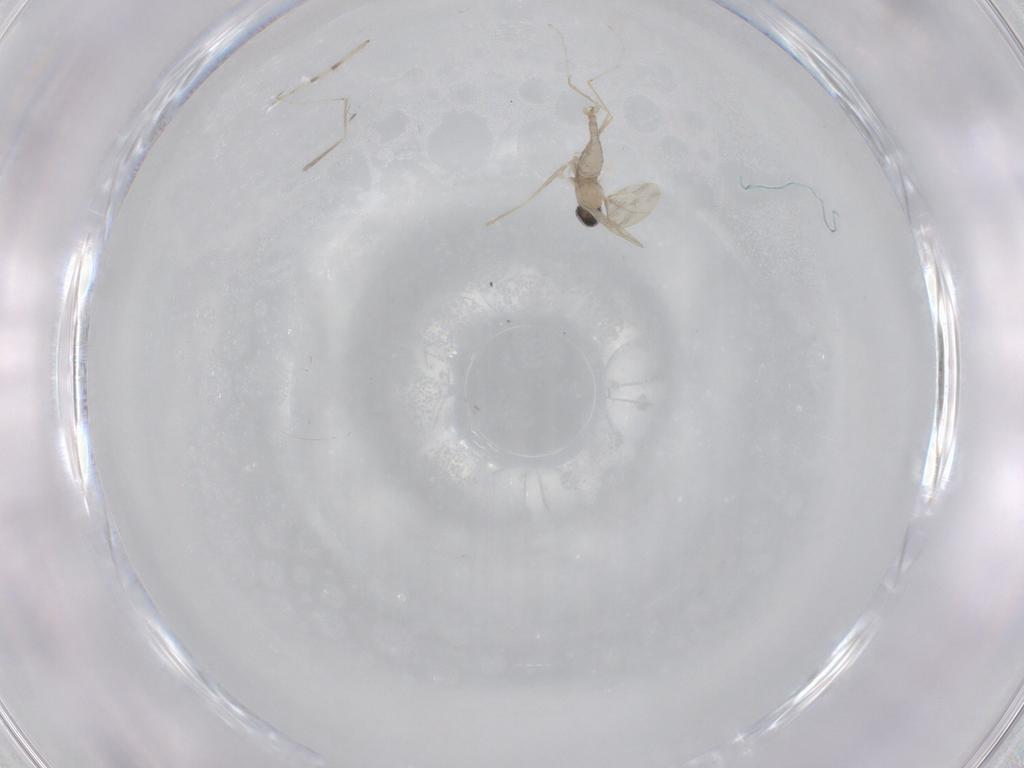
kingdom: Animalia
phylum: Arthropoda
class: Insecta
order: Diptera
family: Cecidomyiidae
